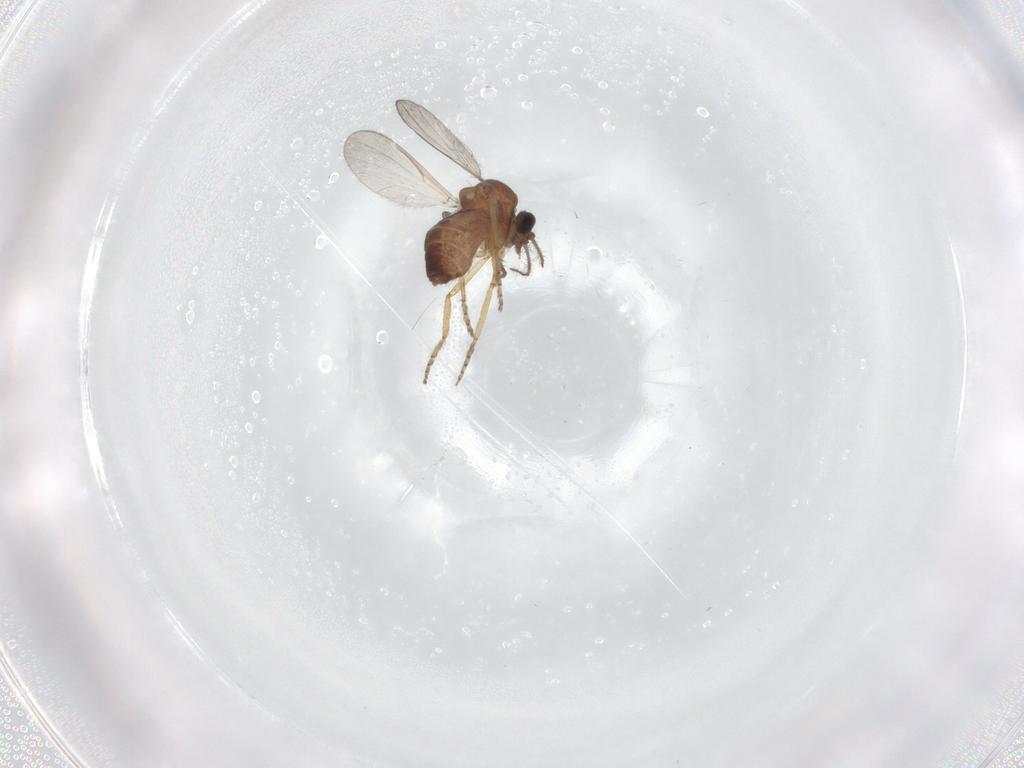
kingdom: Animalia
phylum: Arthropoda
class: Insecta
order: Diptera
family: Ceratopogonidae
